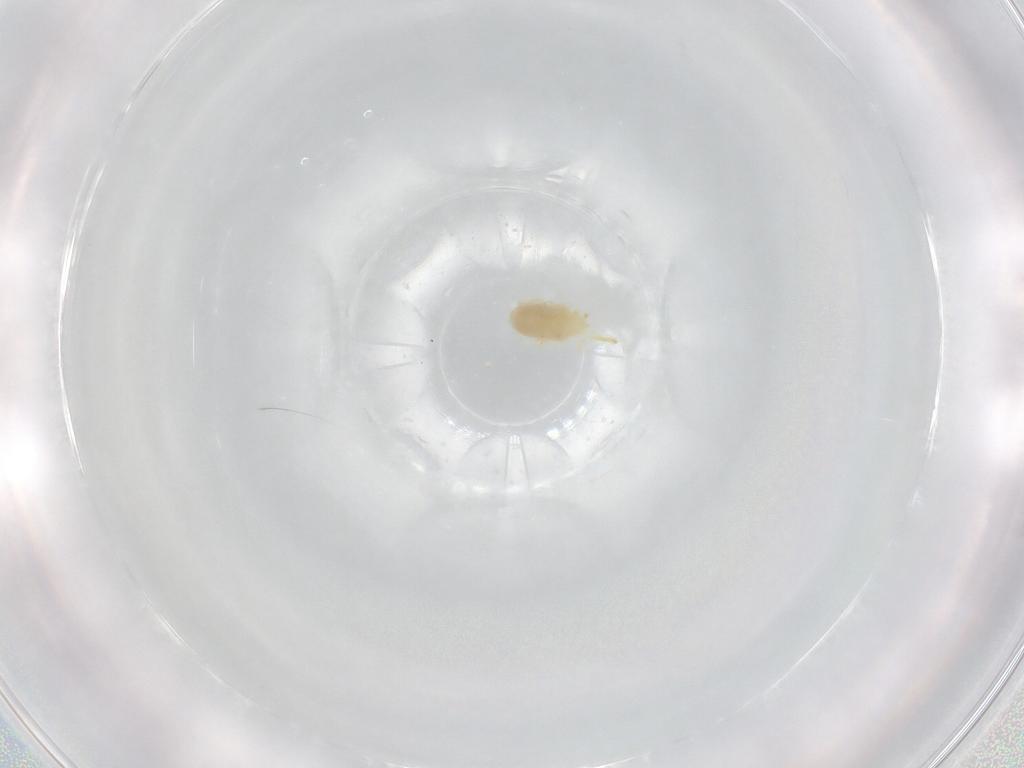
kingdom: Animalia
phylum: Arthropoda
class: Arachnida
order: Trombidiformes
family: Rhagidiidae
